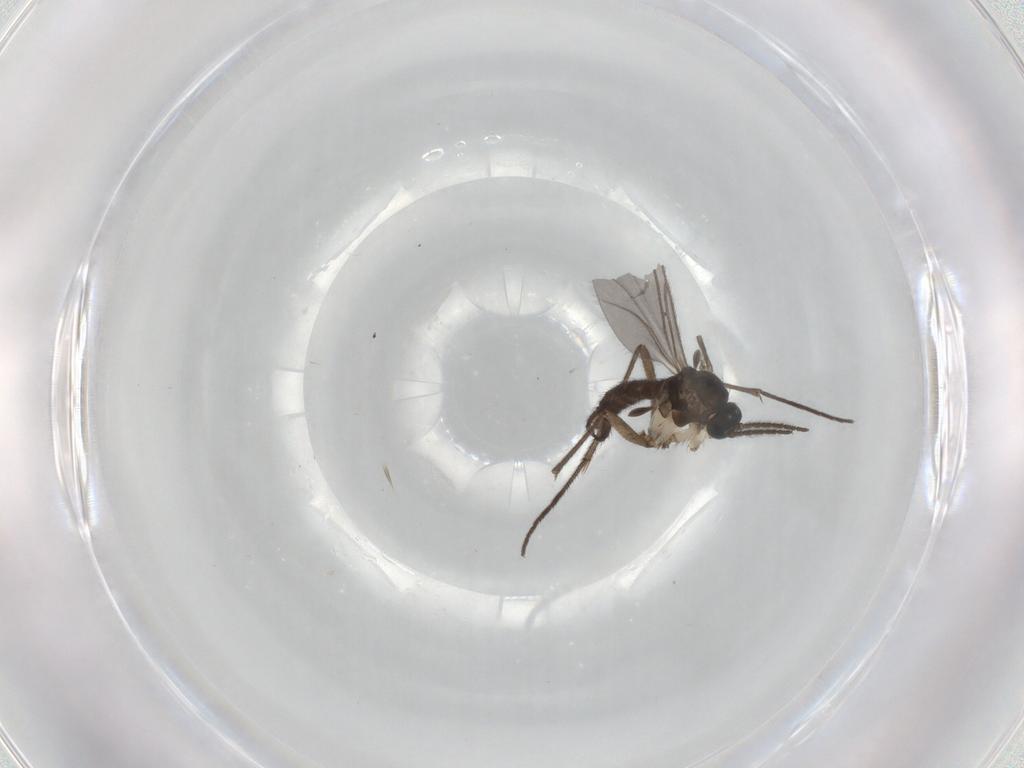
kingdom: Animalia
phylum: Arthropoda
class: Insecta
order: Diptera
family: Sciaridae
